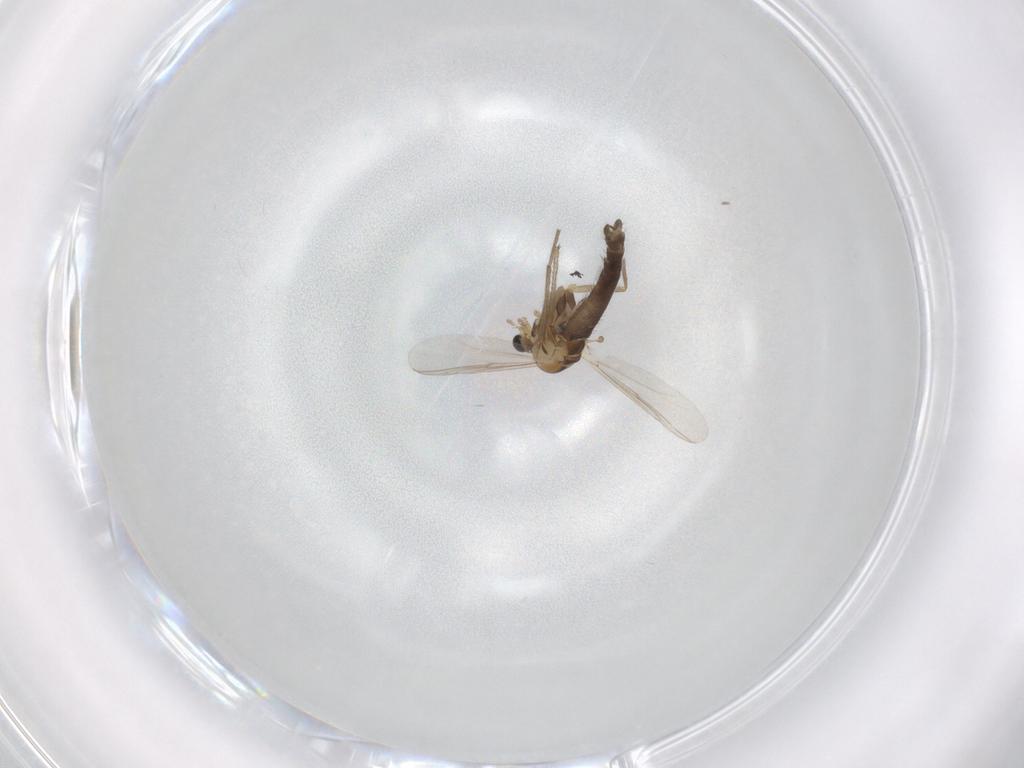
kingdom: Animalia
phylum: Arthropoda
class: Insecta
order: Diptera
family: Chironomidae
